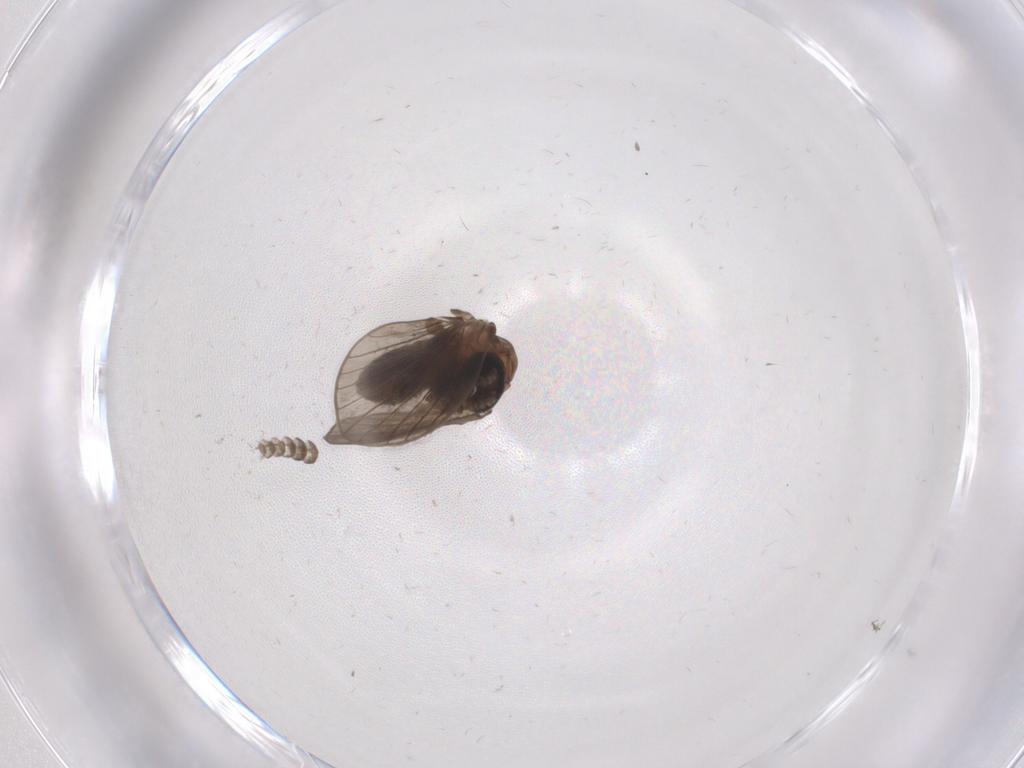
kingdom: Animalia
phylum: Arthropoda
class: Insecta
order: Diptera
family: Psychodidae
